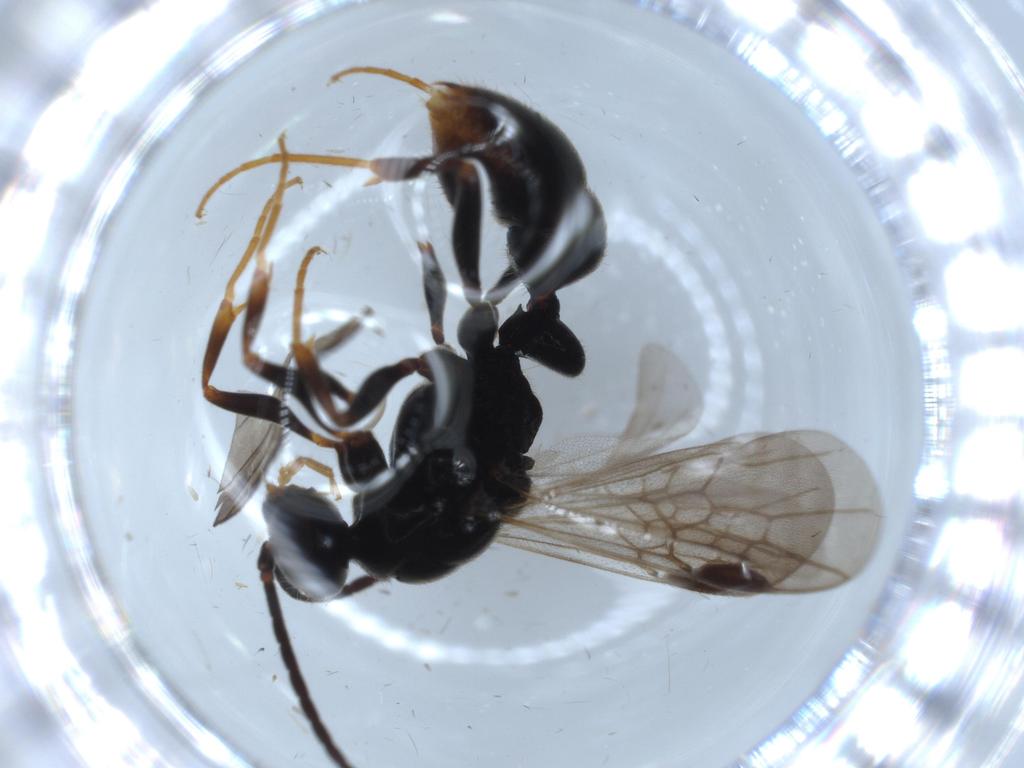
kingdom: Animalia
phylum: Arthropoda
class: Insecta
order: Hymenoptera
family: Formicidae
